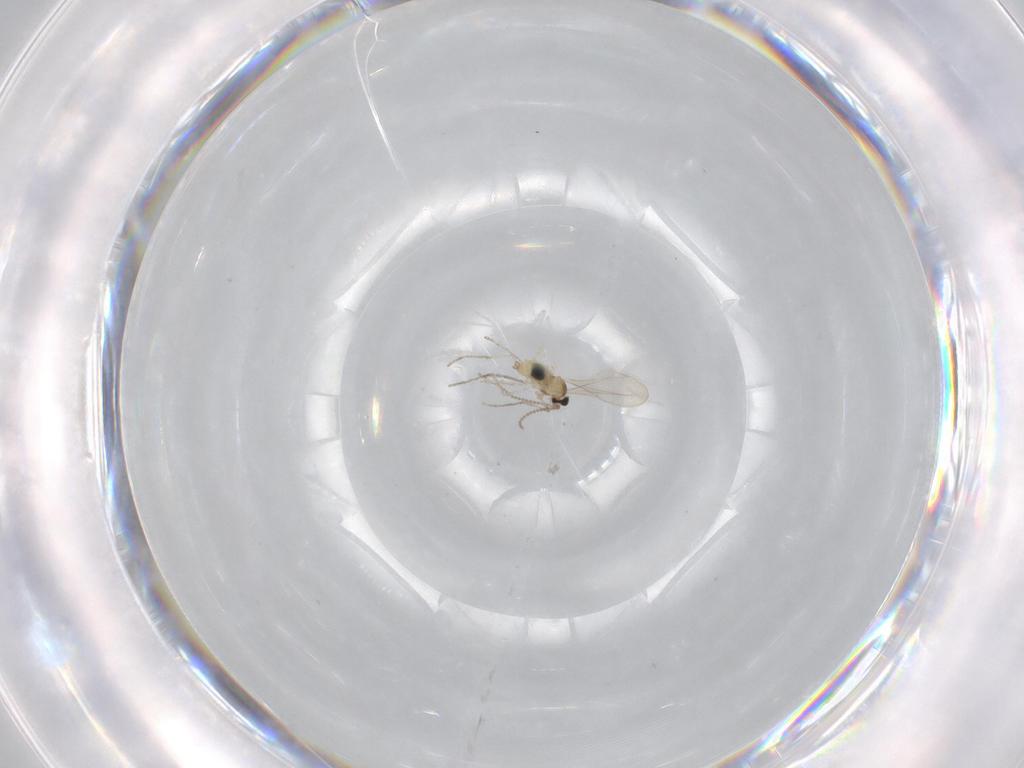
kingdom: Animalia
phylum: Arthropoda
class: Insecta
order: Diptera
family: Cecidomyiidae
